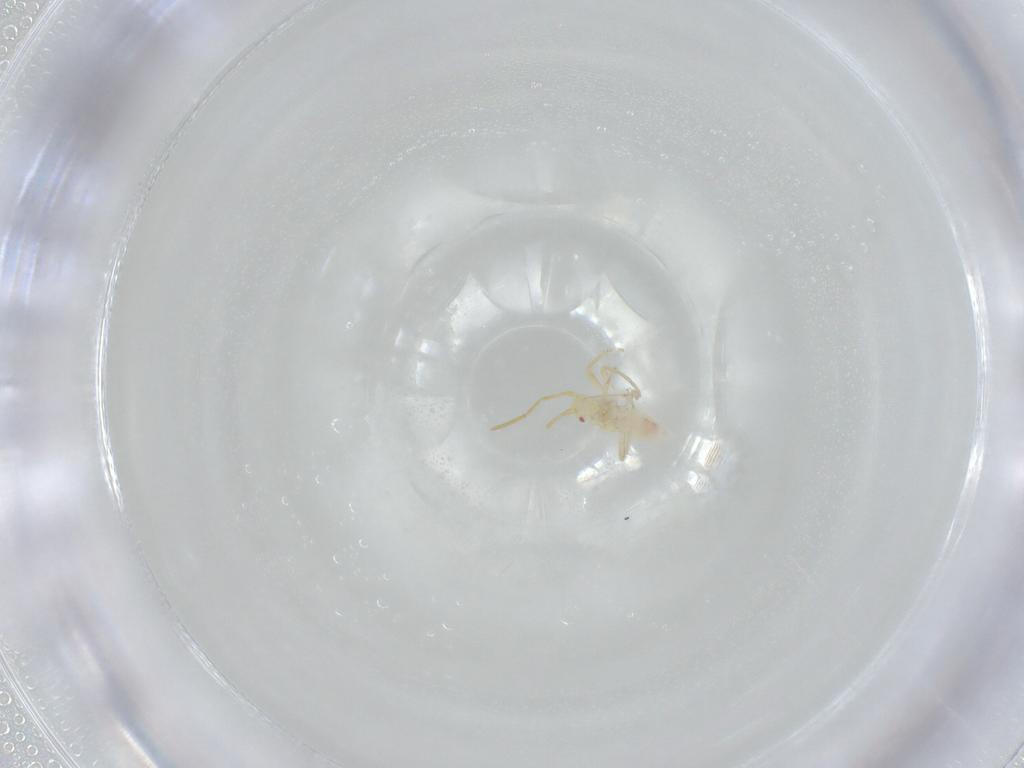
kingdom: Animalia
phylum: Arthropoda
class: Insecta
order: Hemiptera
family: Miridae
